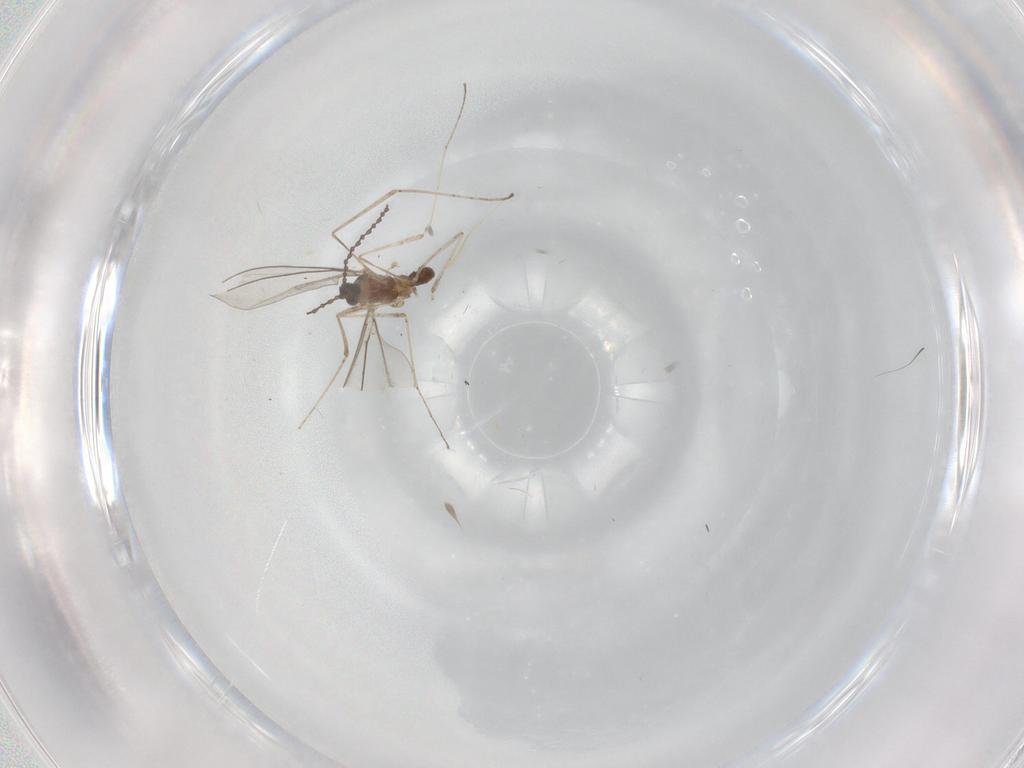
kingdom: Animalia
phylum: Arthropoda
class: Insecta
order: Diptera
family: Cecidomyiidae
